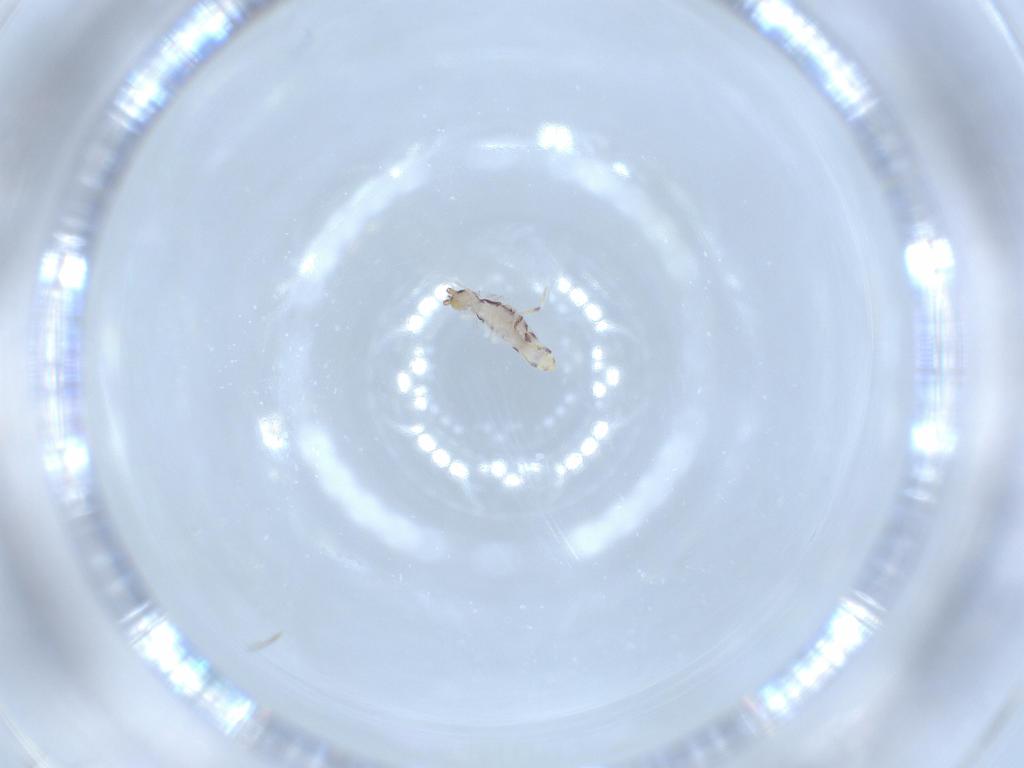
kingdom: Animalia
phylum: Arthropoda
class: Collembola
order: Entomobryomorpha
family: Entomobryidae
